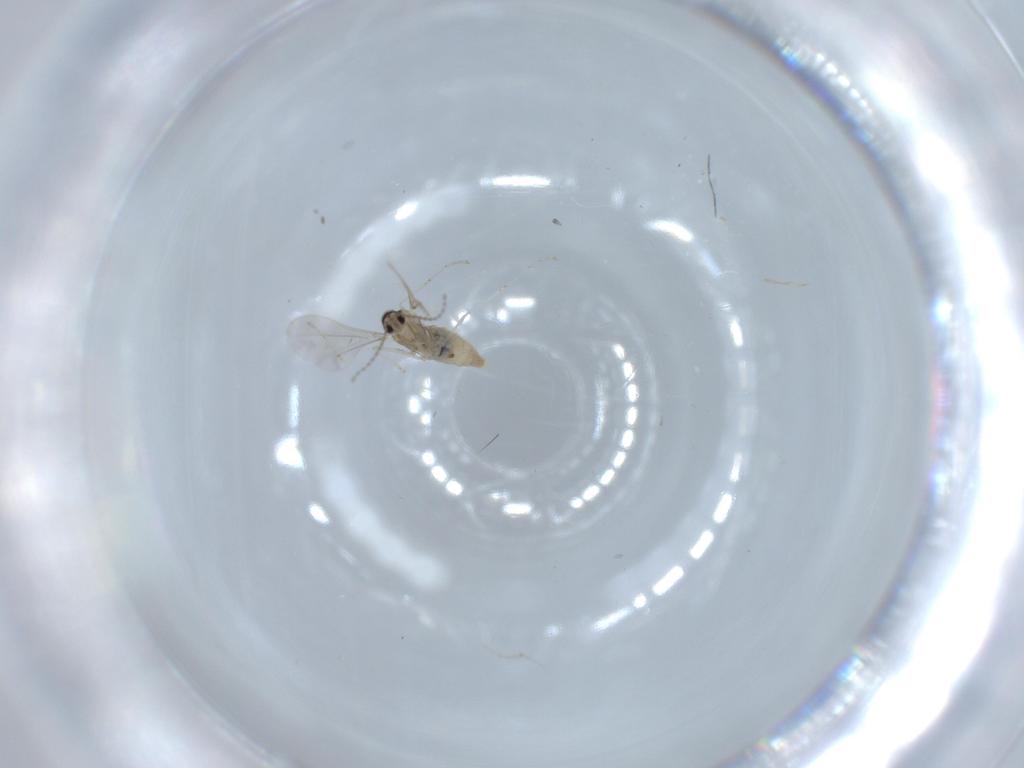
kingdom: Animalia
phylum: Arthropoda
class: Insecta
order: Diptera
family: Cecidomyiidae
